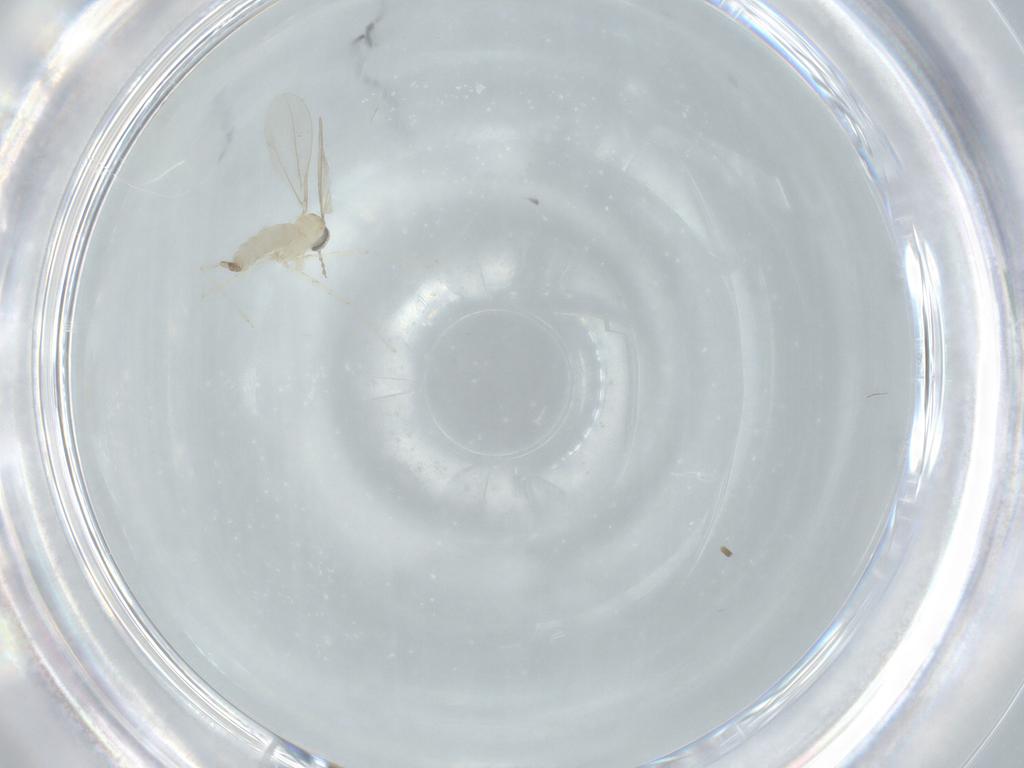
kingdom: Animalia
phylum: Arthropoda
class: Insecta
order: Diptera
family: Cecidomyiidae
